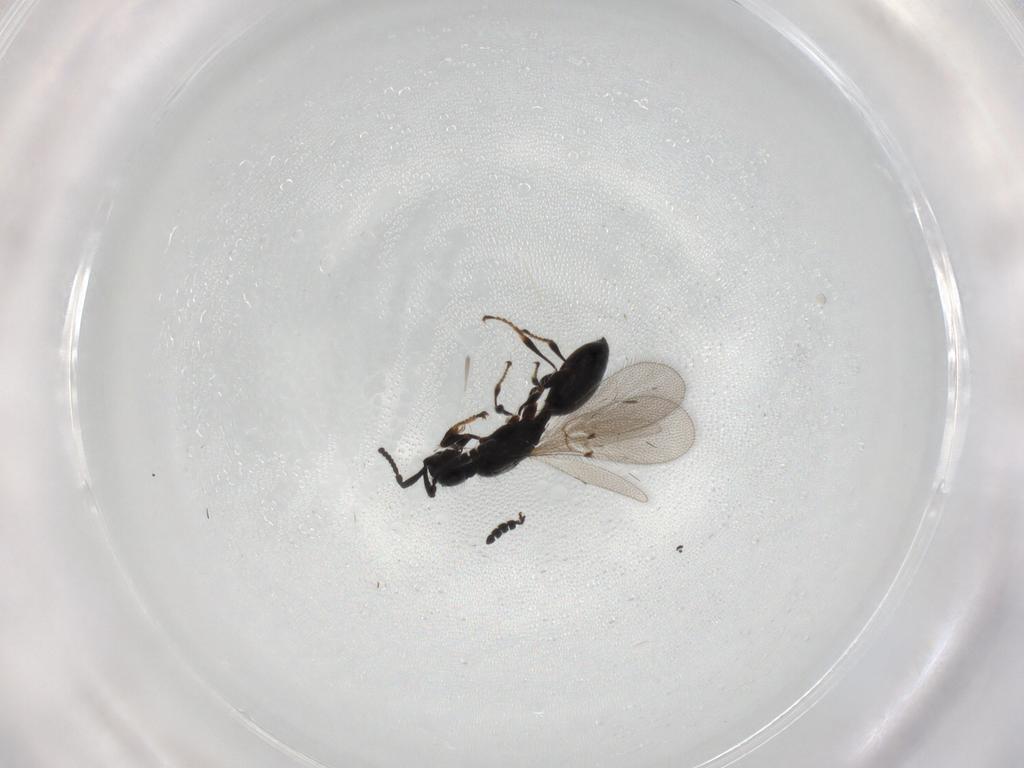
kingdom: Animalia
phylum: Arthropoda
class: Insecta
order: Hymenoptera
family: Diapriidae
